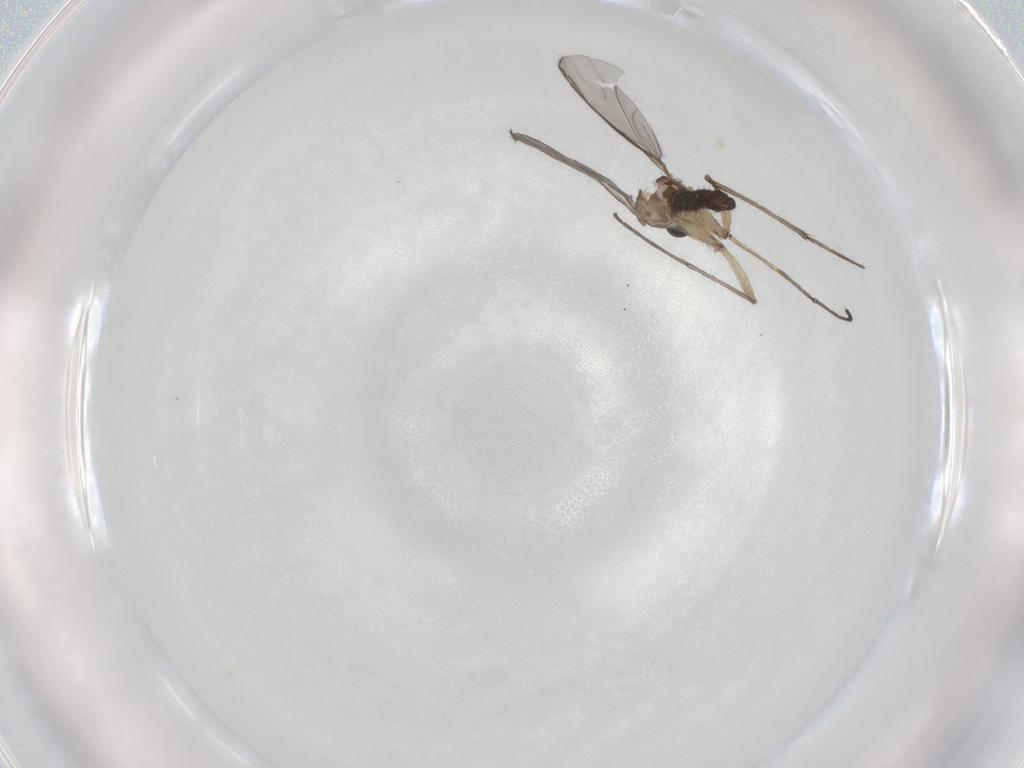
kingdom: Animalia
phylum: Arthropoda
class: Insecta
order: Diptera
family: Sciaridae
